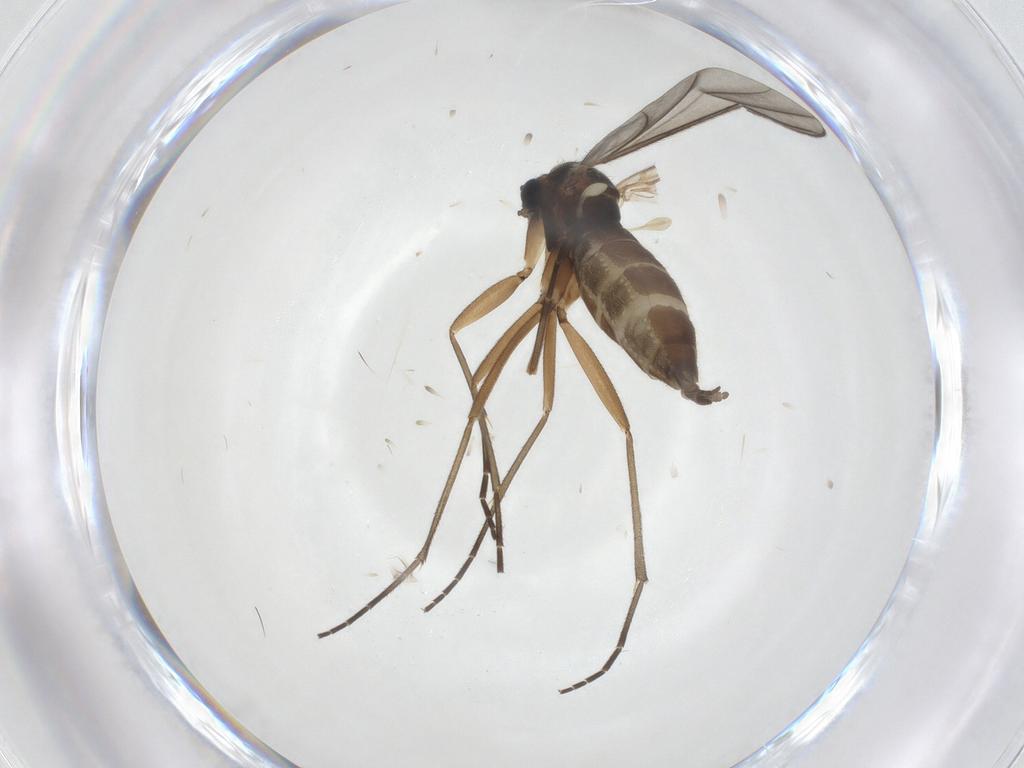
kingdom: Animalia
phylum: Arthropoda
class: Insecta
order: Diptera
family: Sciaridae
